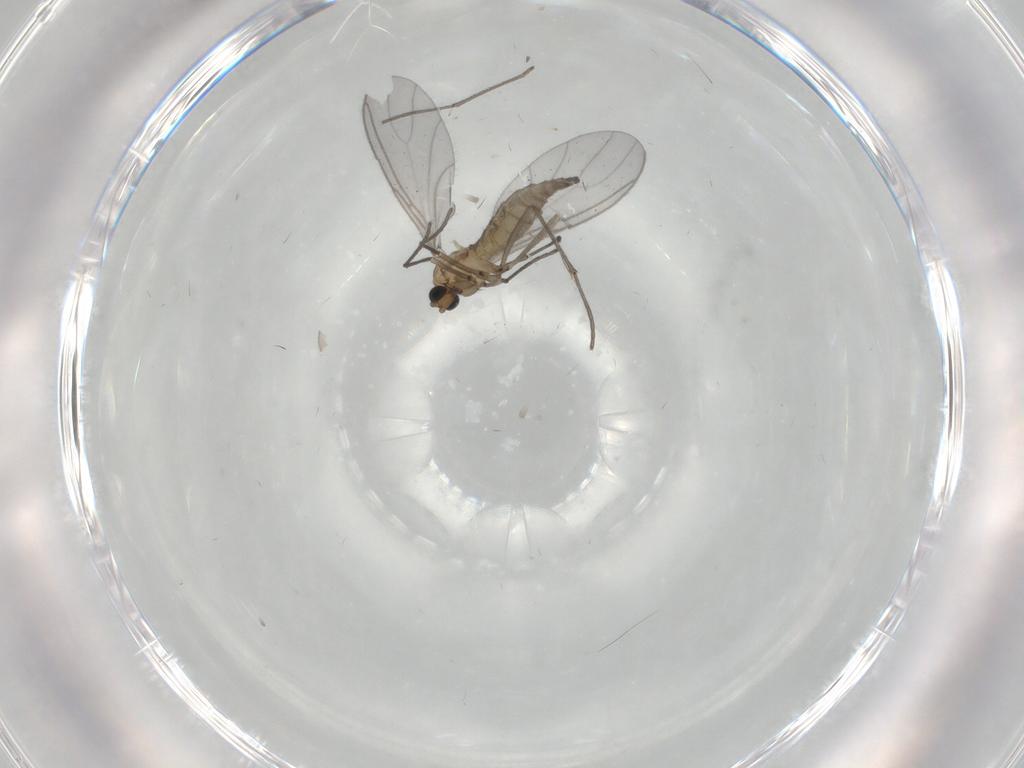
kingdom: Animalia
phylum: Arthropoda
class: Insecta
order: Diptera
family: Sciaridae
